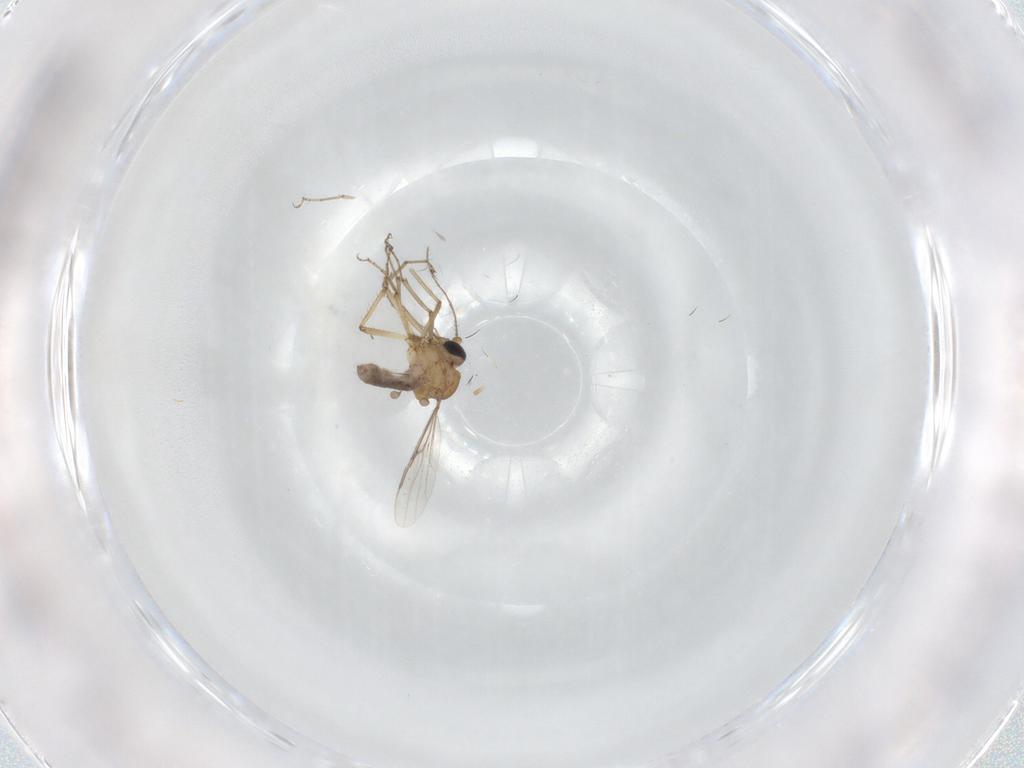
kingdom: Animalia
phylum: Arthropoda
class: Insecta
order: Diptera
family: Ceratopogonidae
